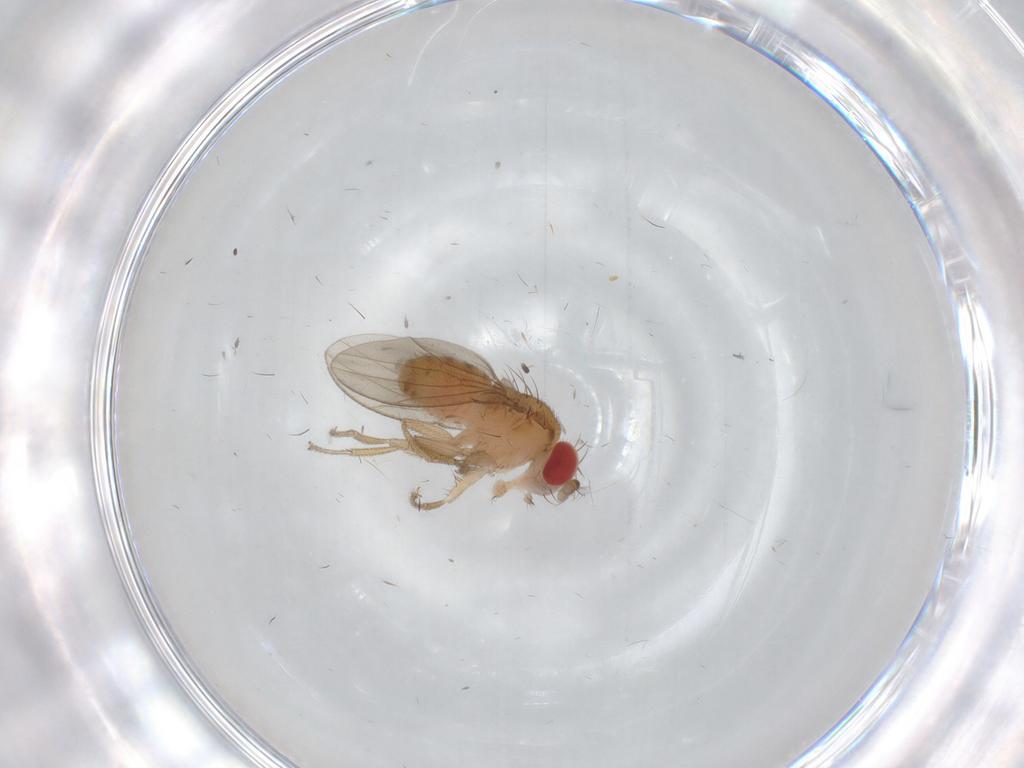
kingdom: Animalia
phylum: Arthropoda
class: Insecta
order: Diptera
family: Drosophilidae
